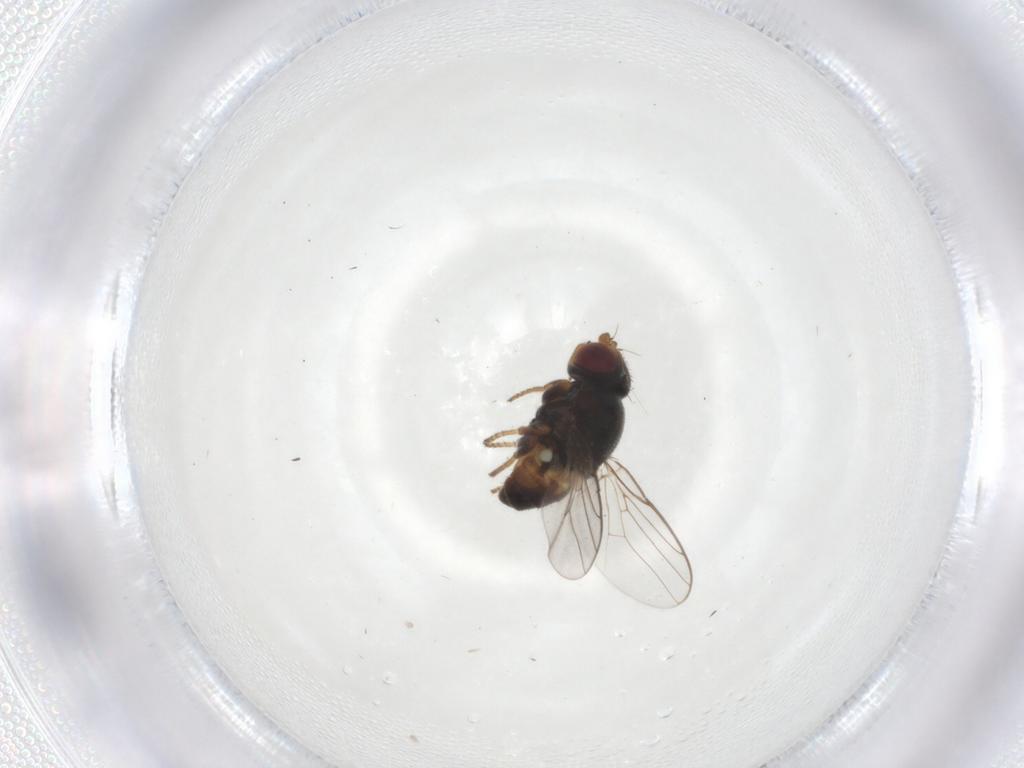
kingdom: Animalia
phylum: Arthropoda
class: Insecta
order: Diptera
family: Chloropidae
